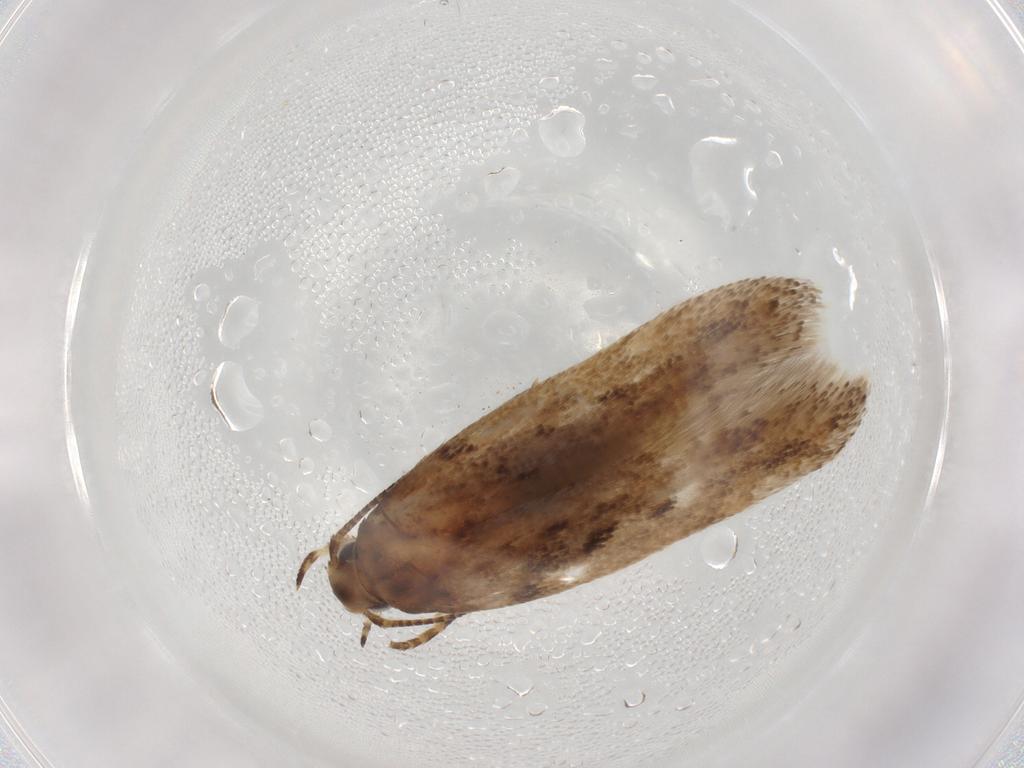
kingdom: Animalia
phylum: Arthropoda
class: Insecta
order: Lepidoptera
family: Gelechiidae
